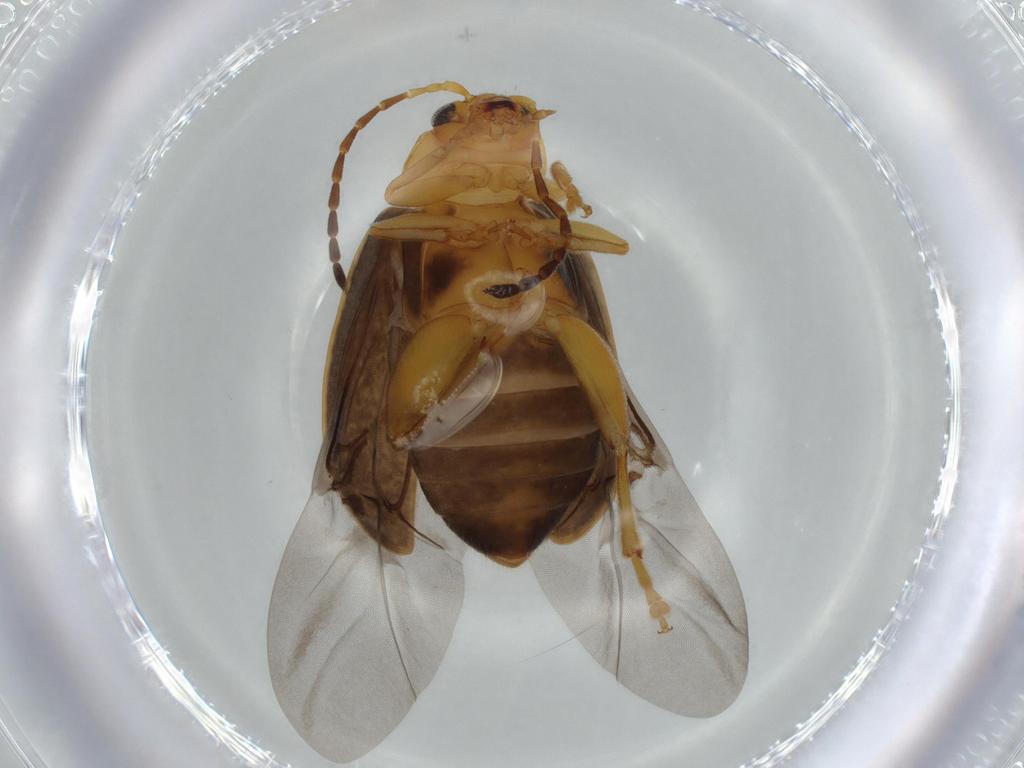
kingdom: Animalia
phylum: Arthropoda
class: Insecta
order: Coleoptera
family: Chrysomelidae
